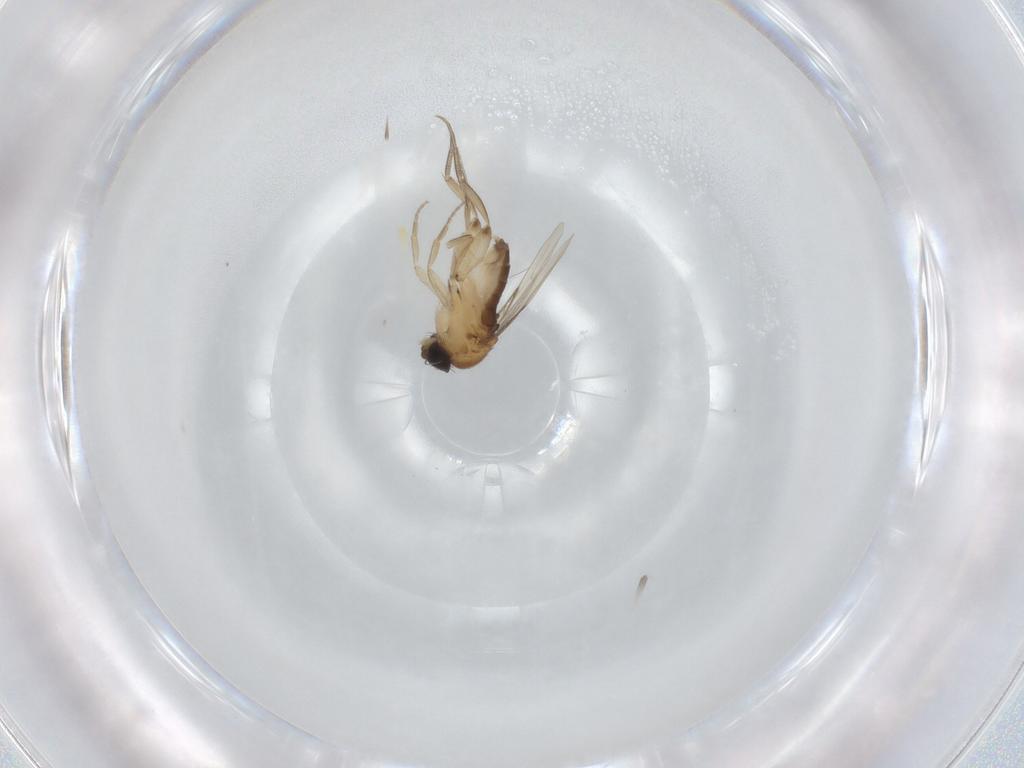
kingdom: Animalia
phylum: Arthropoda
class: Insecta
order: Diptera
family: Phoridae
